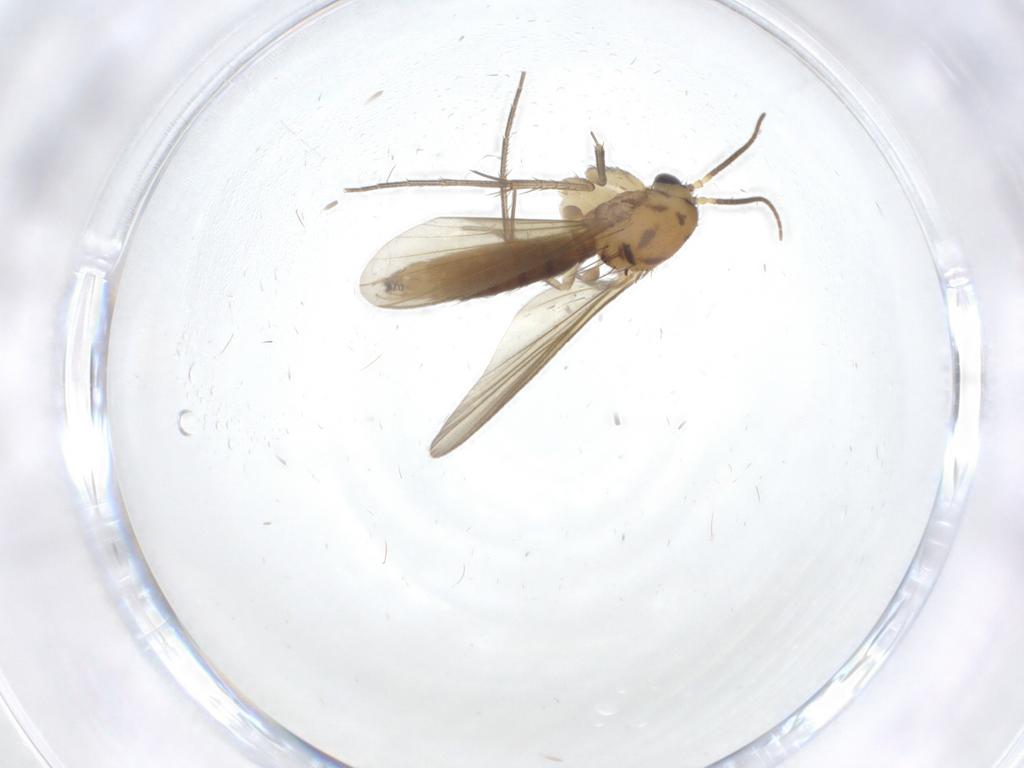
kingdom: Animalia
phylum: Arthropoda
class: Insecta
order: Diptera
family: Mycetophilidae
